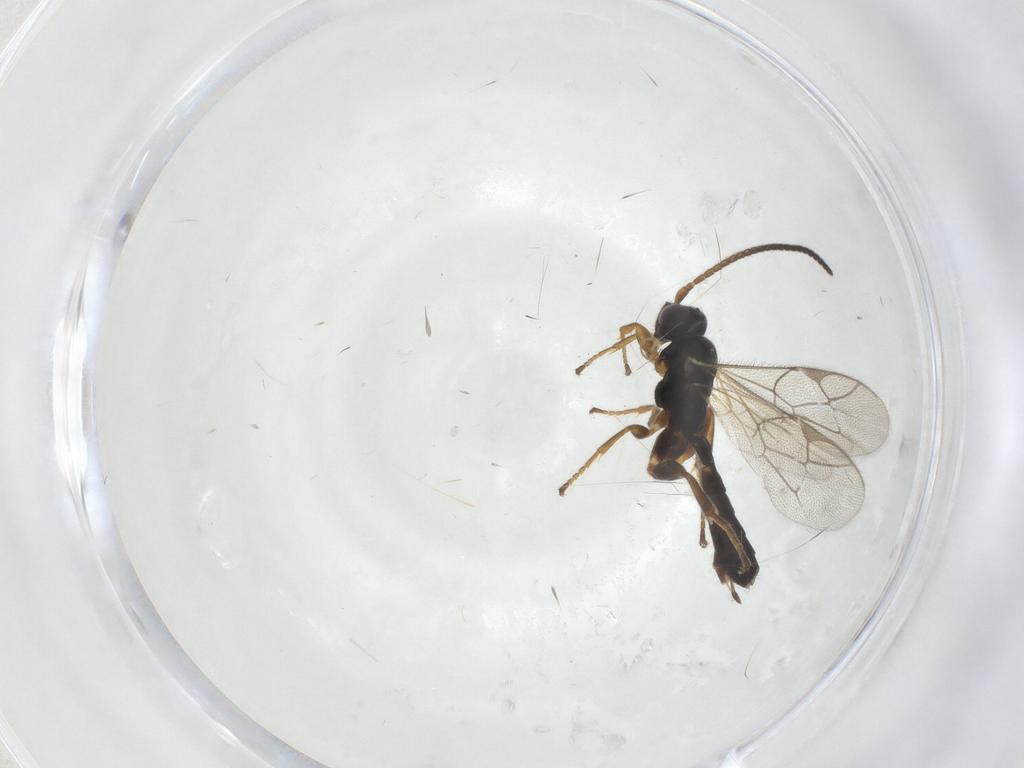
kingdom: Animalia
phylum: Arthropoda
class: Insecta
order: Hymenoptera
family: Ichneumonidae
